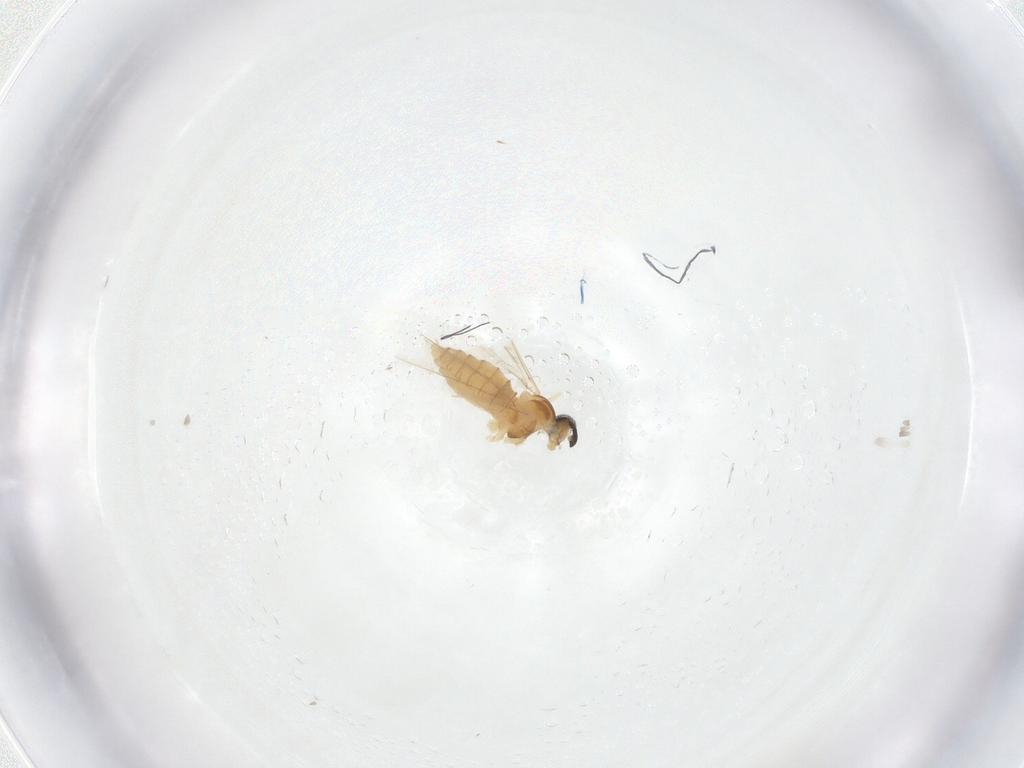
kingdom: Animalia
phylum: Arthropoda
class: Insecta
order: Diptera
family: Cecidomyiidae
